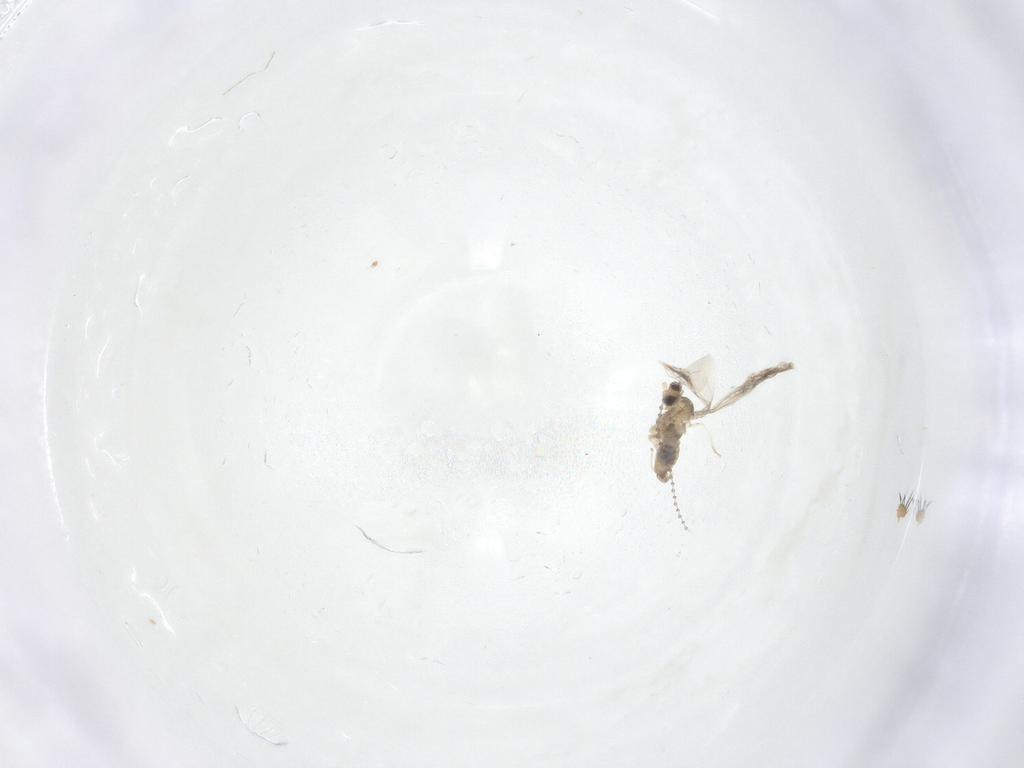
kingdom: Animalia
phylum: Arthropoda
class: Insecta
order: Diptera
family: Cecidomyiidae
